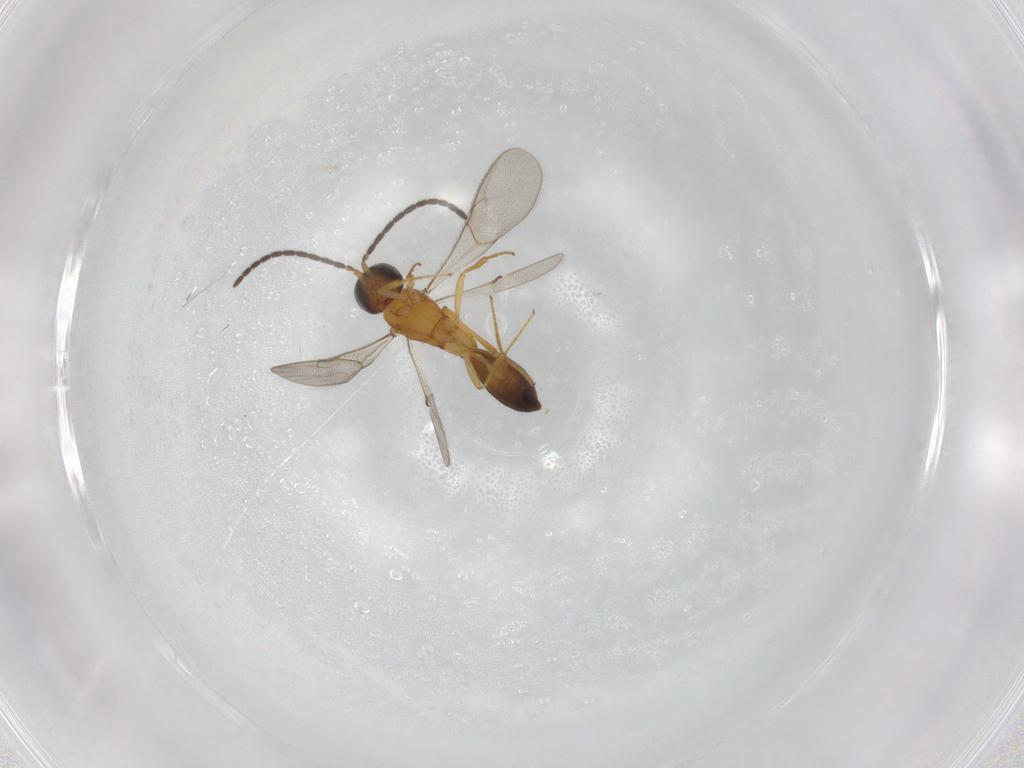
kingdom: Animalia
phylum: Arthropoda
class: Insecta
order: Hymenoptera
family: Scelionidae
